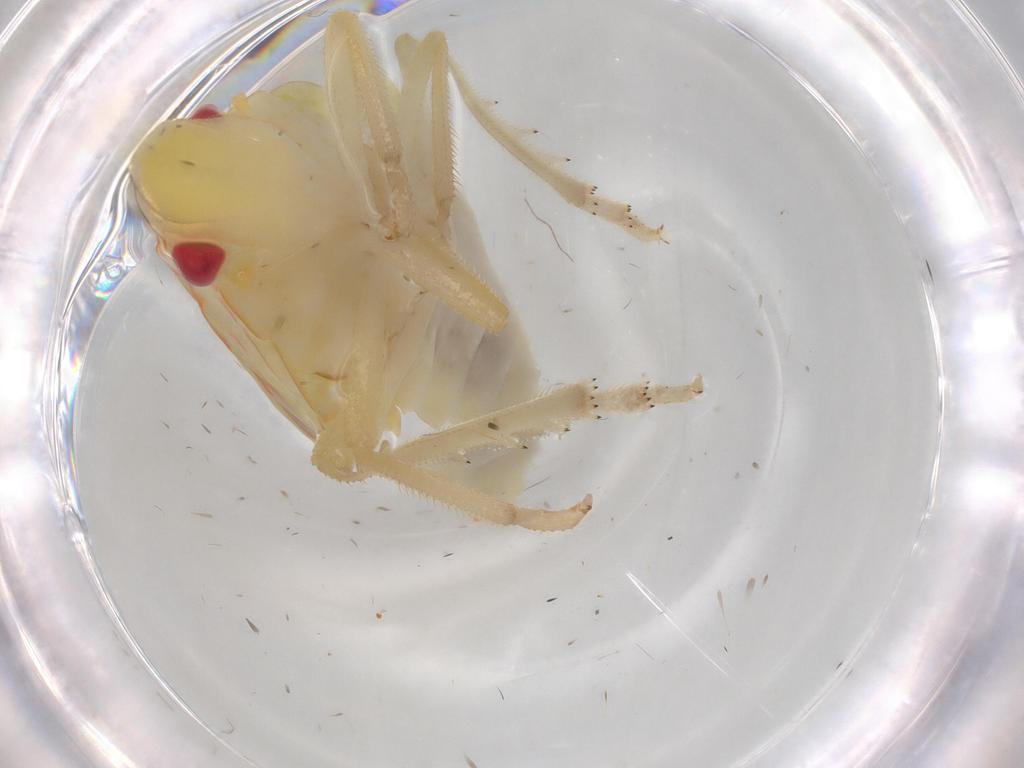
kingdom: Animalia
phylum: Arthropoda
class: Insecta
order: Hemiptera
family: Tropiduchidae
